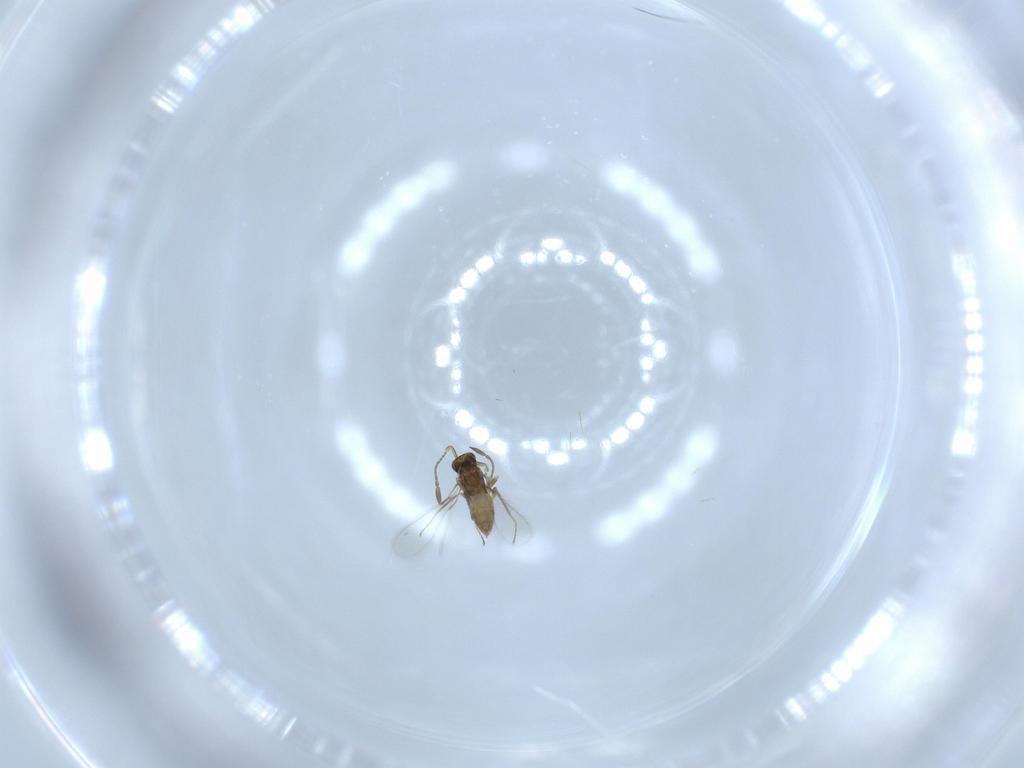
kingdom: Animalia
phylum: Arthropoda
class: Insecta
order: Hymenoptera
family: Mymaridae
